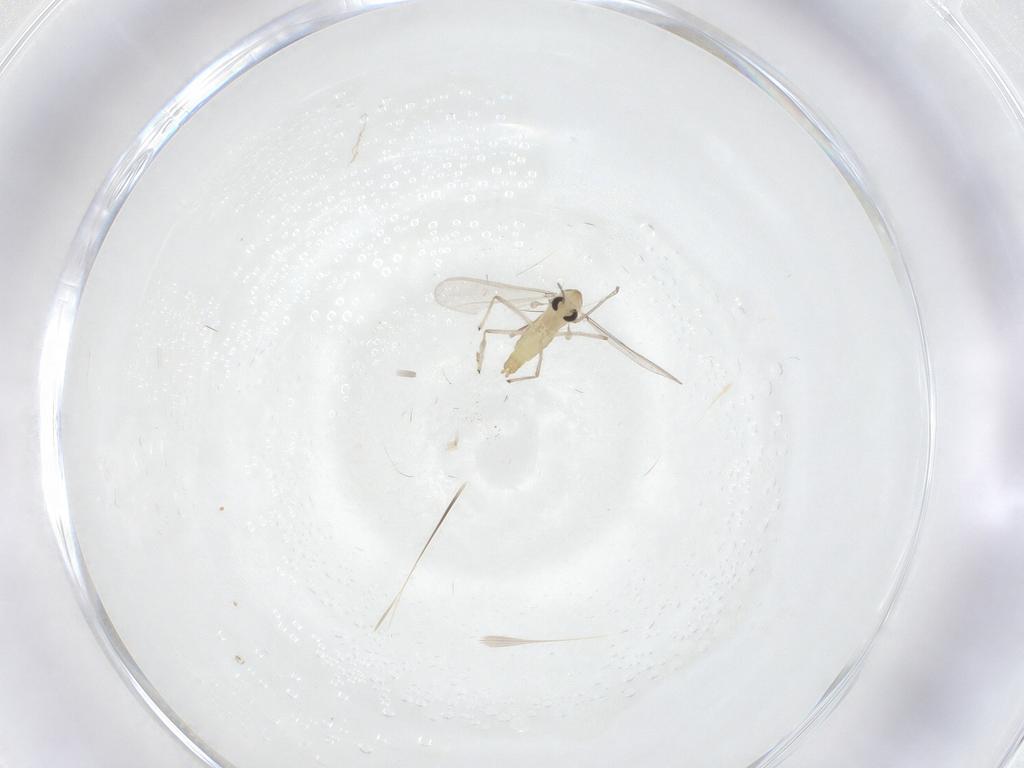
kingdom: Animalia
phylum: Arthropoda
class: Insecta
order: Diptera
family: Chironomidae
